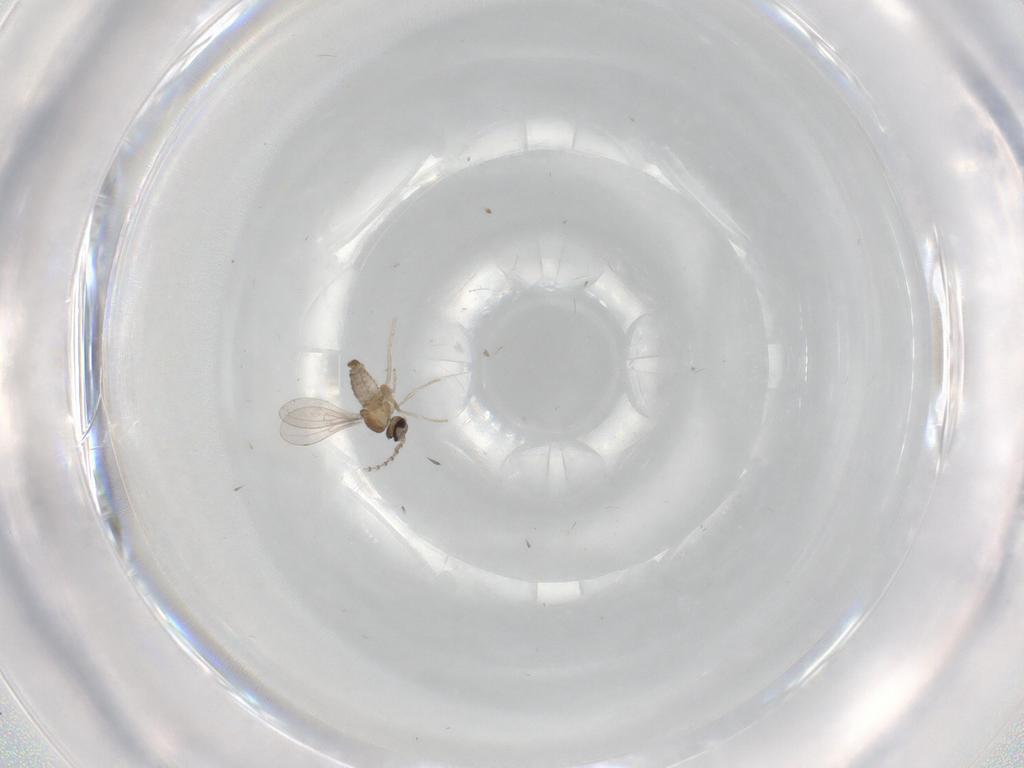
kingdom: Animalia
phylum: Arthropoda
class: Insecta
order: Diptera
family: Cecidomyiidae
